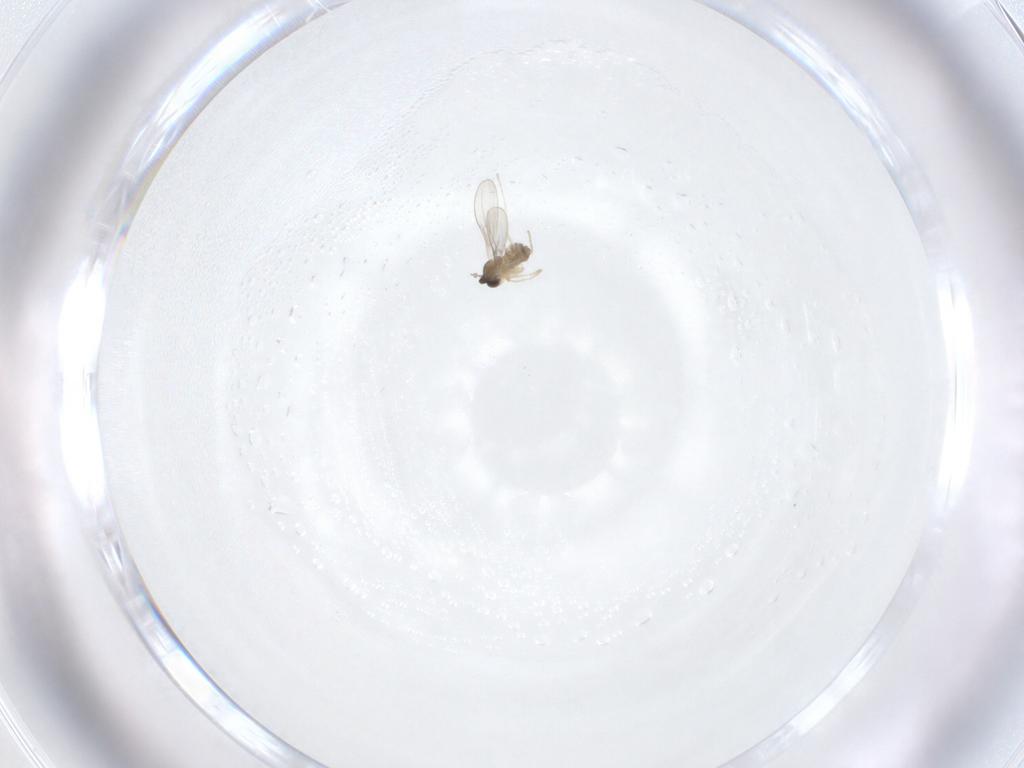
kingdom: Animalia
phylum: Arthropoda
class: Insecta
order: Diptera
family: Cecidomyiidae
